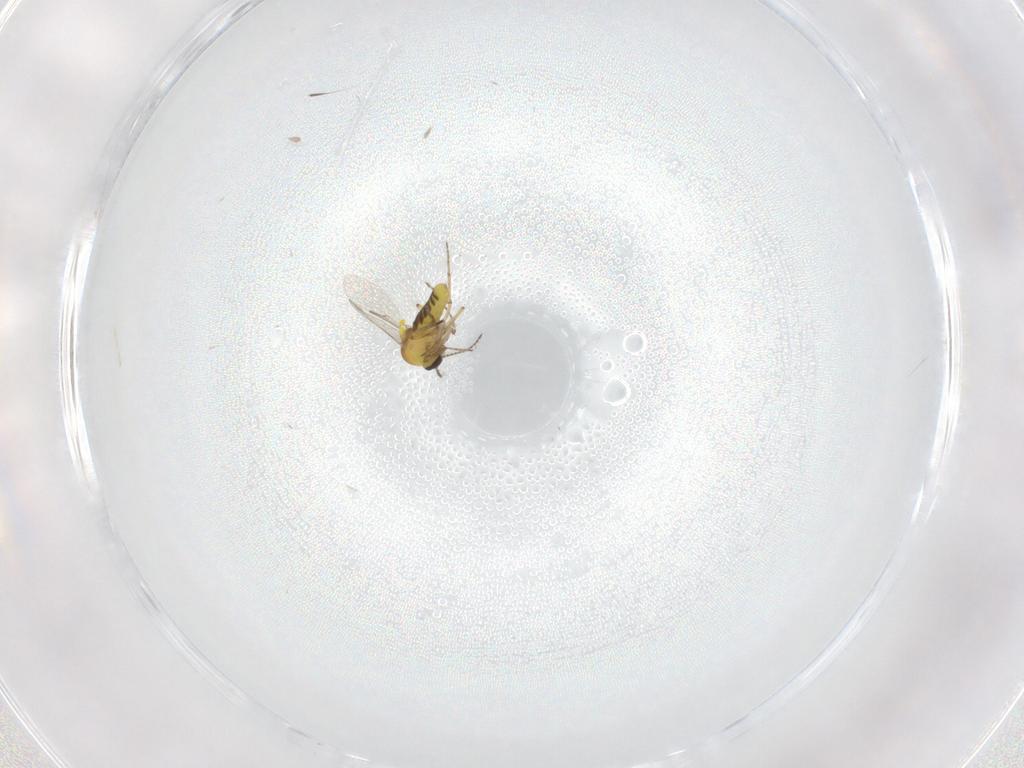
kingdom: Animalia
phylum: Arthropoda
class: Insecta
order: Diptera
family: Phoridae
